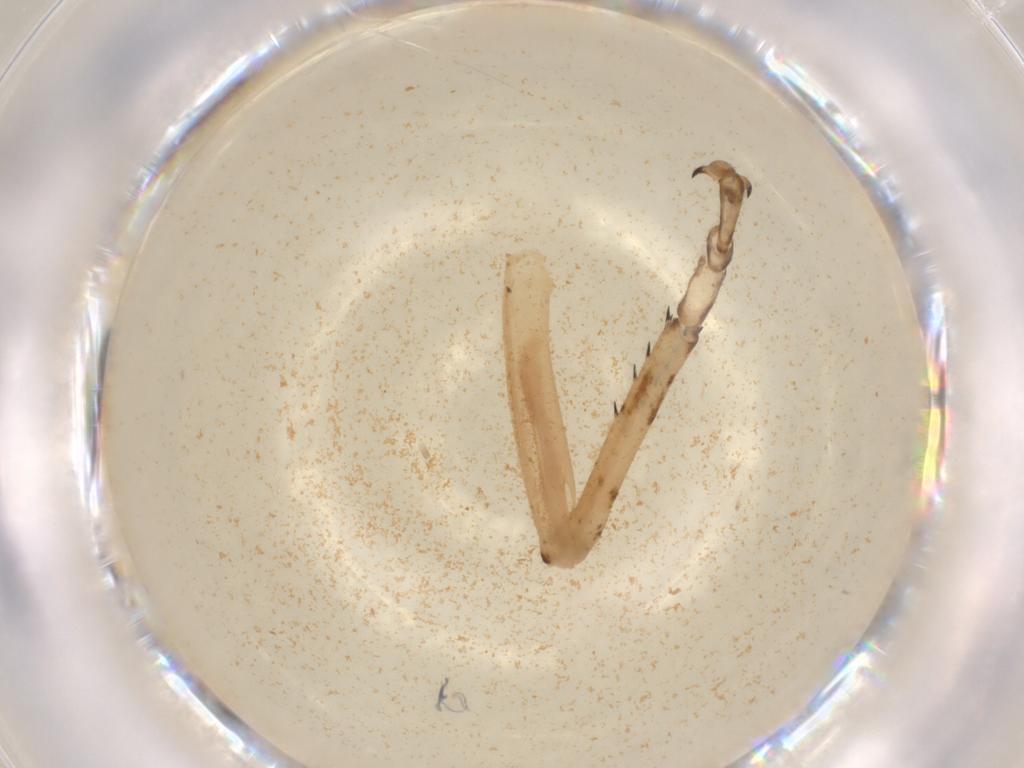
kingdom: Animalia
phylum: Arthropoda
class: Insecta
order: Orthoptera
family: Acrididae
